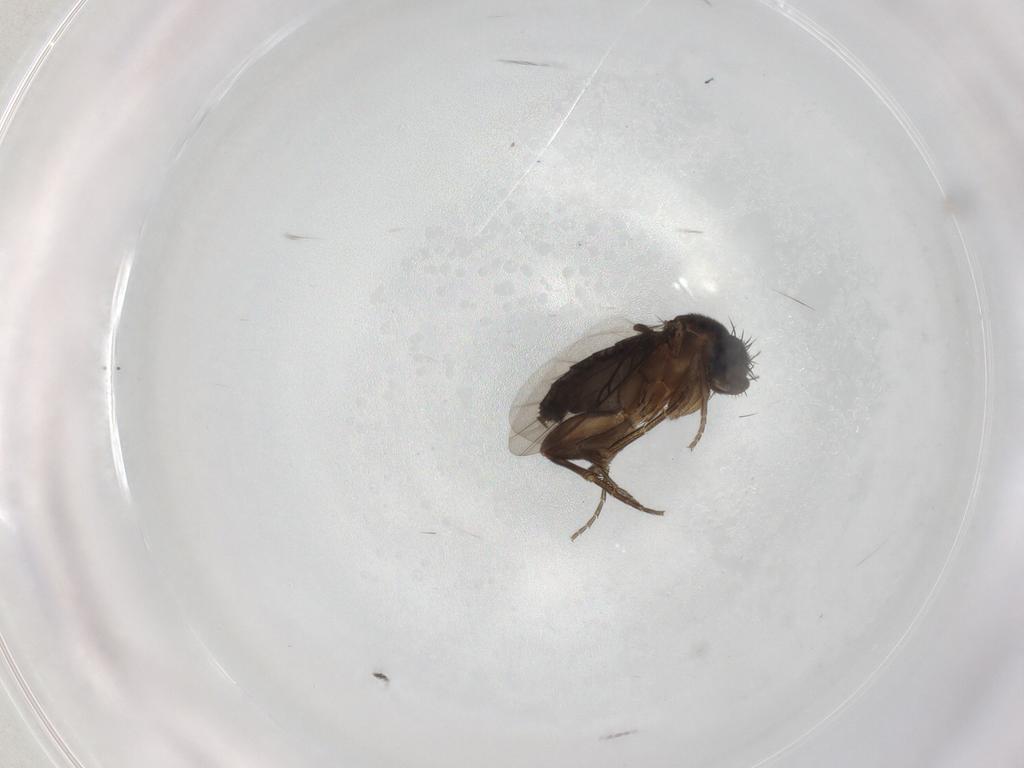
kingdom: Animalia
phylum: Arthropoda
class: Insecta
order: Diptera
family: Phoridae
